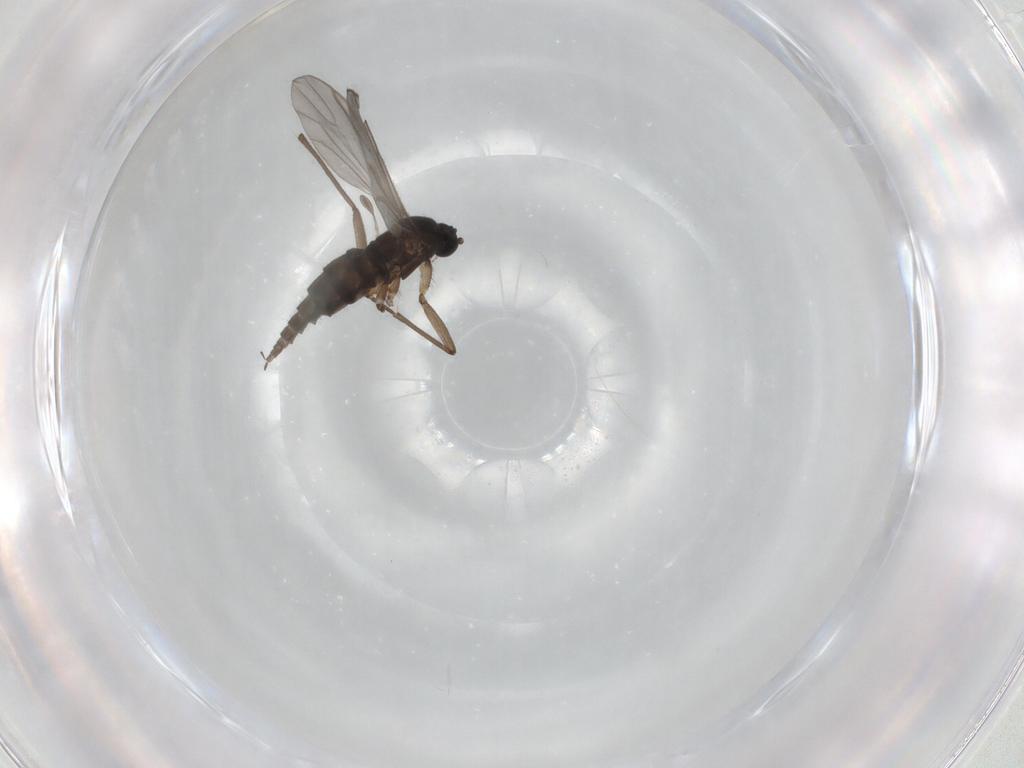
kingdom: Animalia
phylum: Arthropoda
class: Insecta
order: Diptera
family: Sciaridae
